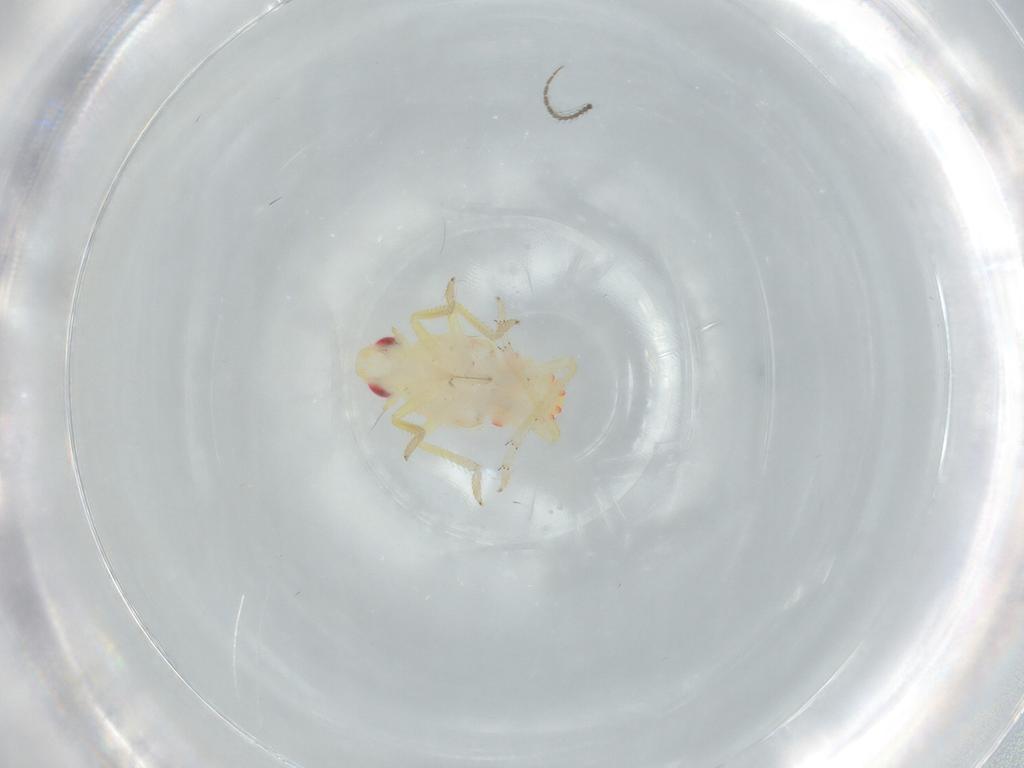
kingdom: Animalia
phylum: Arthropoda
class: Insecta
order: Hemiptera
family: Tropiduchidae
